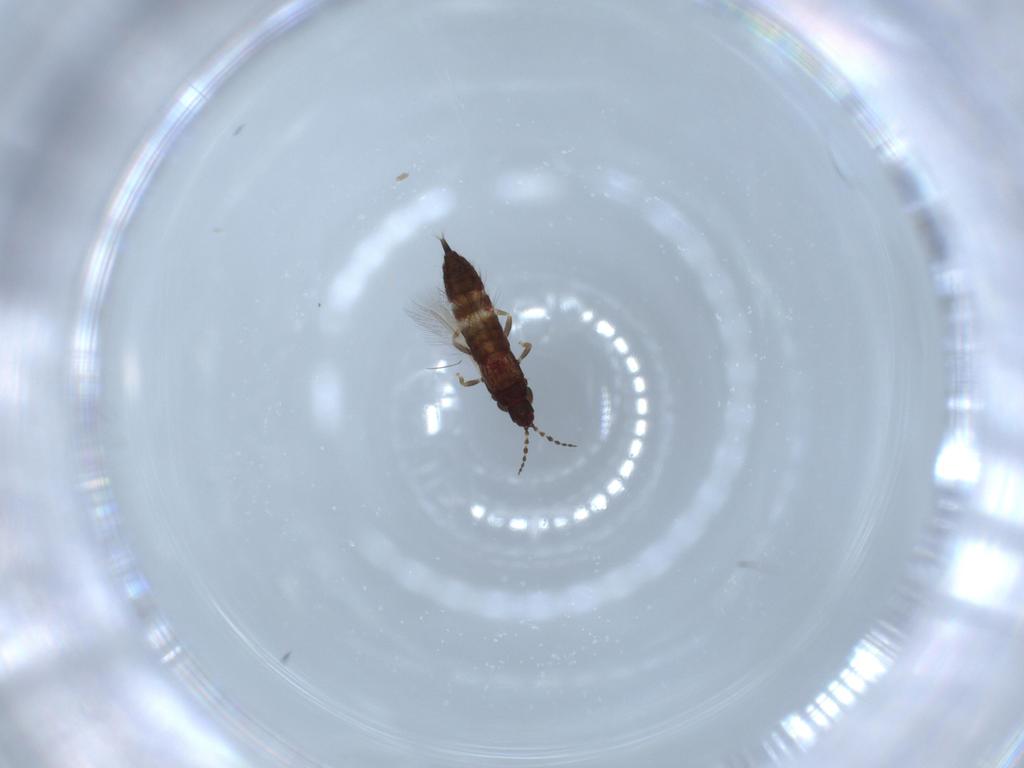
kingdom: Animalia
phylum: Arthropoda
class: Insecta
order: Thysanoptera
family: Phlaeothripidae
